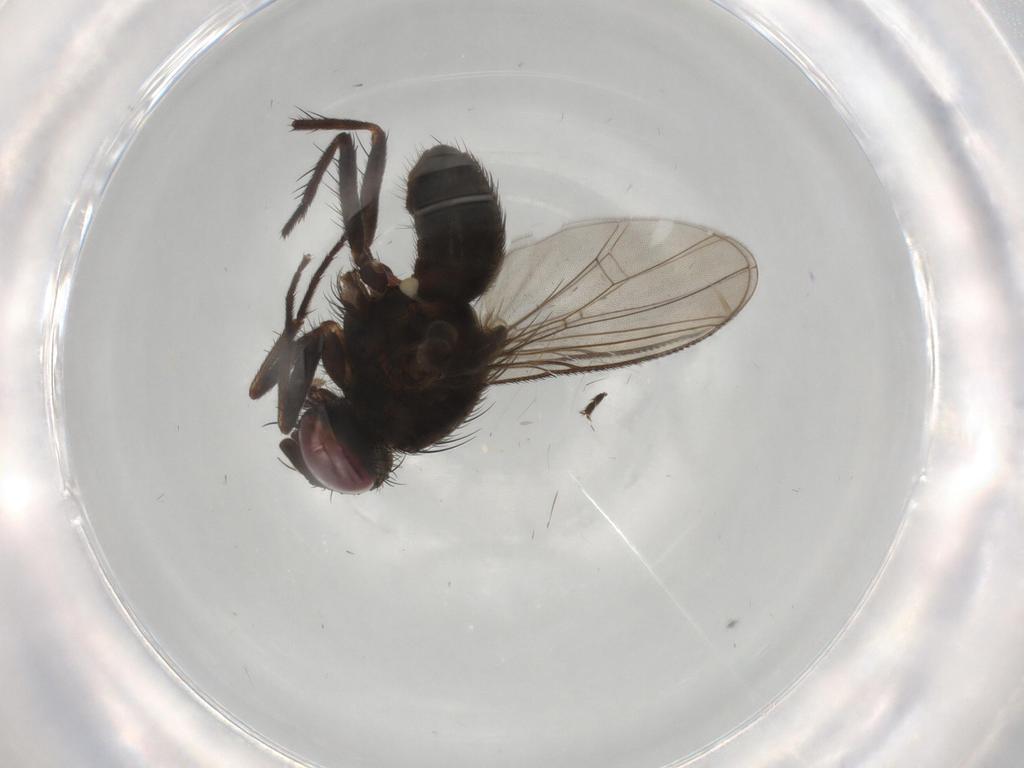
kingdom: Animalia
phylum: Arthropoda
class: Insecta
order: Diptera
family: Muscidae
